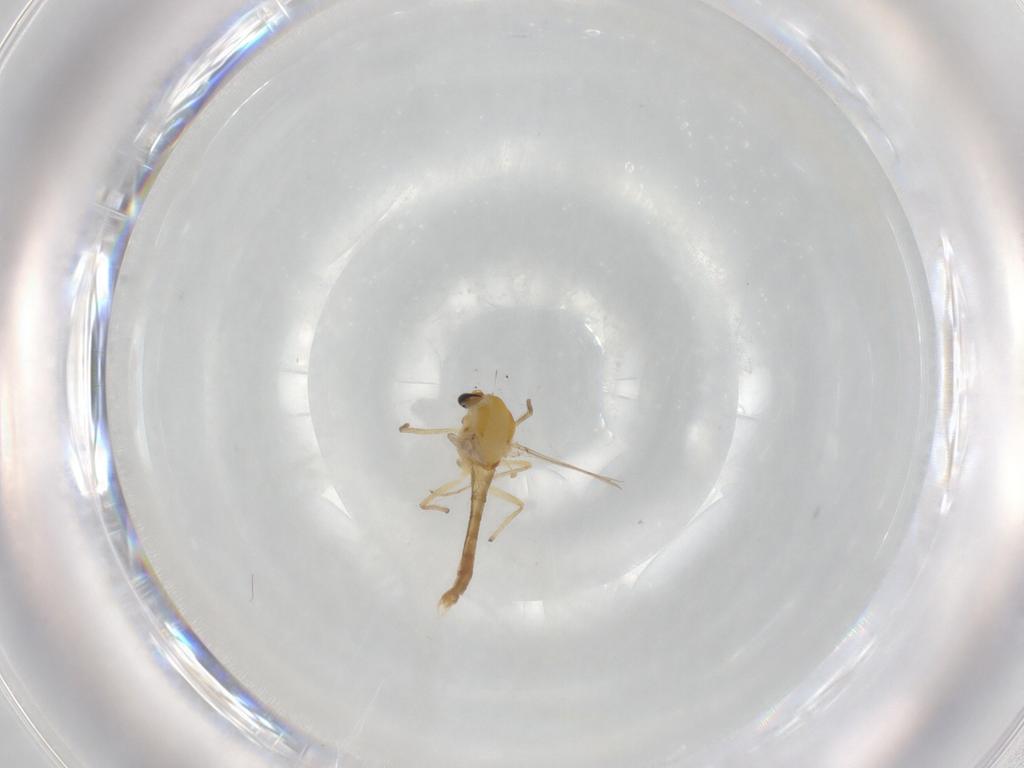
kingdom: Animalia
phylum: Arthropoda
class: Insecta
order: Diptera
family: Chironomidae
